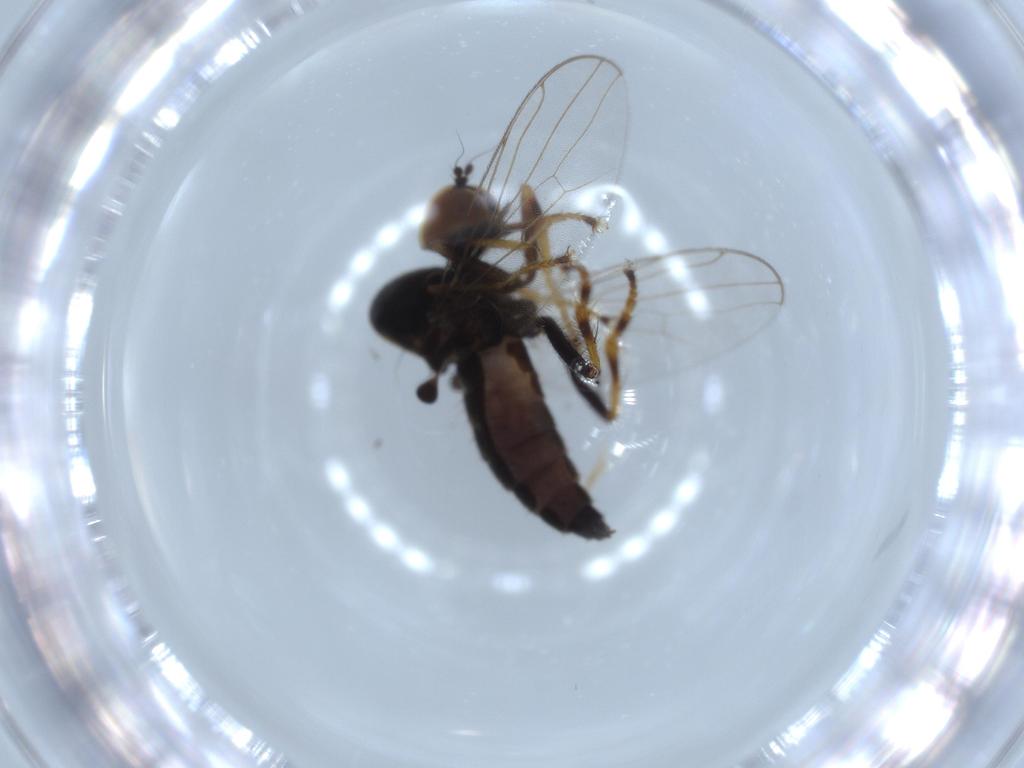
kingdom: Animalia
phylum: Arthropoda
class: Insecta
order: Diptera
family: Hybotidae
